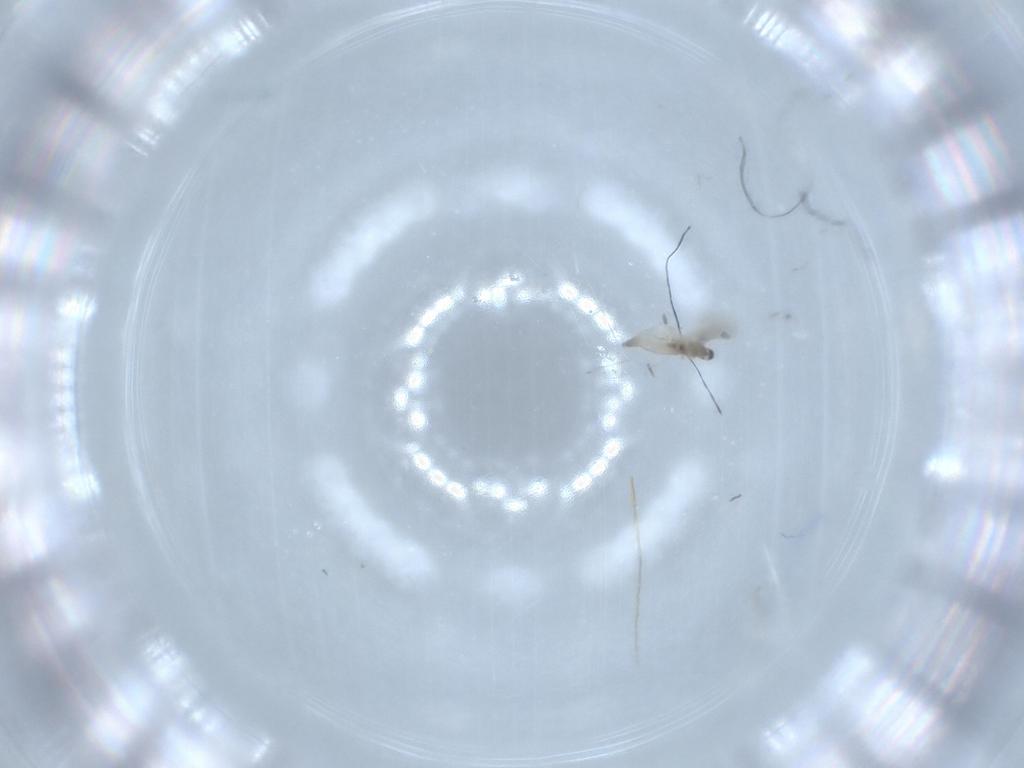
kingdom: Animalia
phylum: Arthropoda
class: Insecta
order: Diptera
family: Cecidomyiidae
